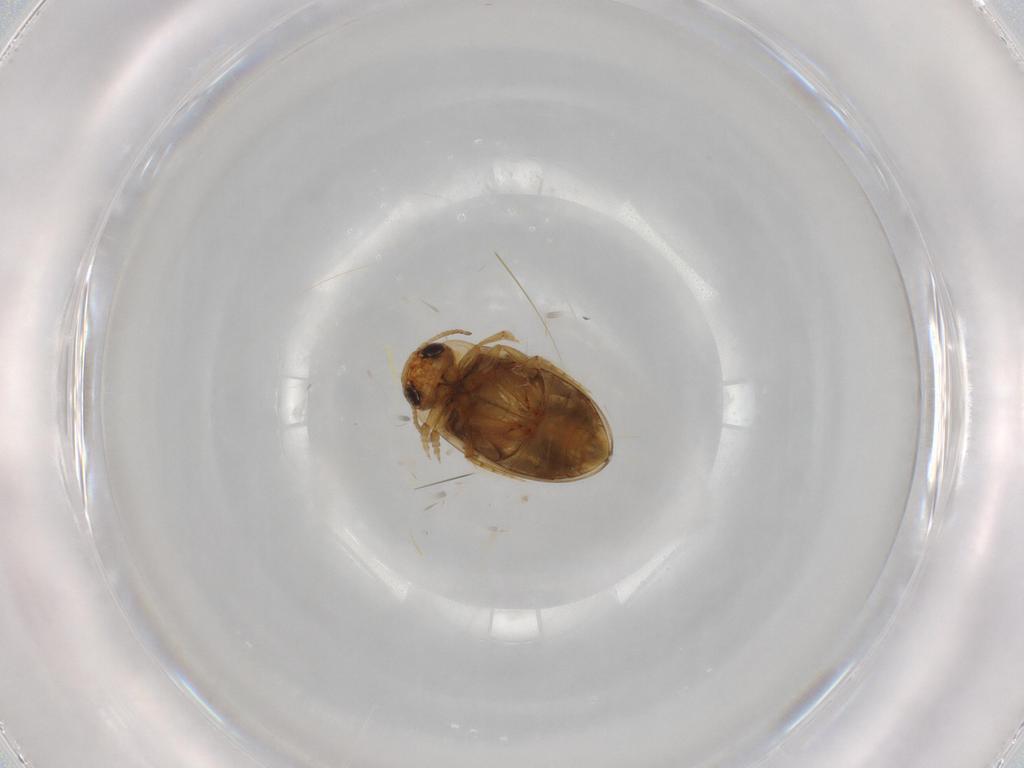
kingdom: Animalia
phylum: Arthropoda
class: Insecta
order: Coleoptera
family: Dytiscidae
